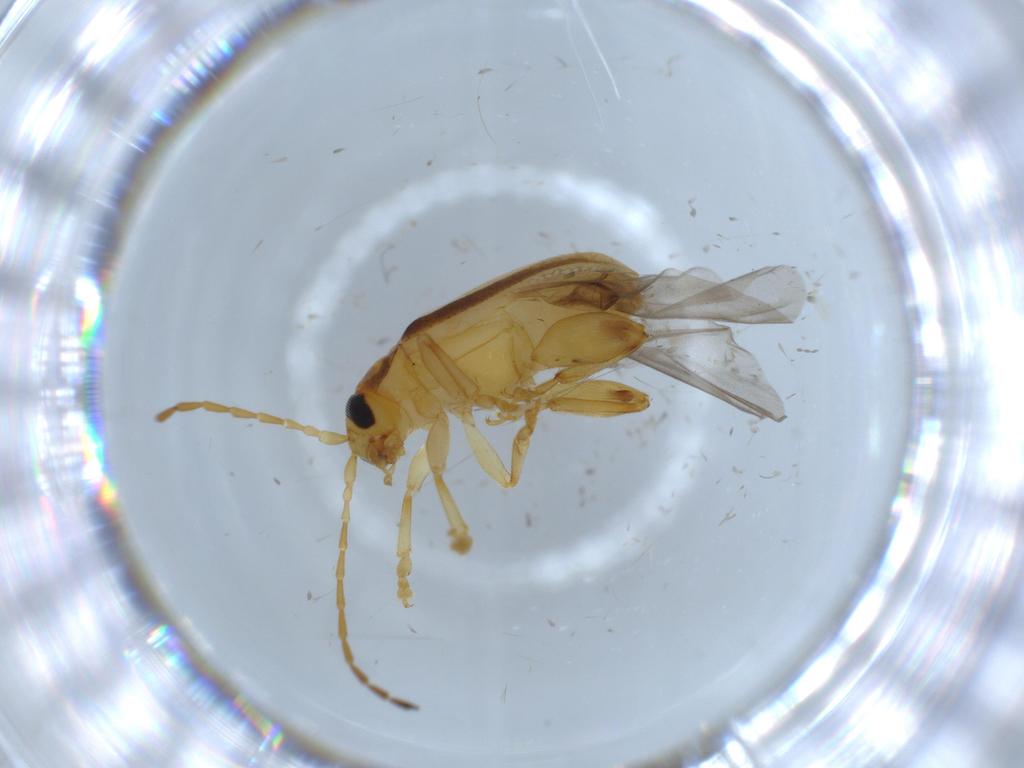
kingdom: Animalia
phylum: Arthropoda
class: Insecta
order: Coleoptera
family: Chrysomelidae
